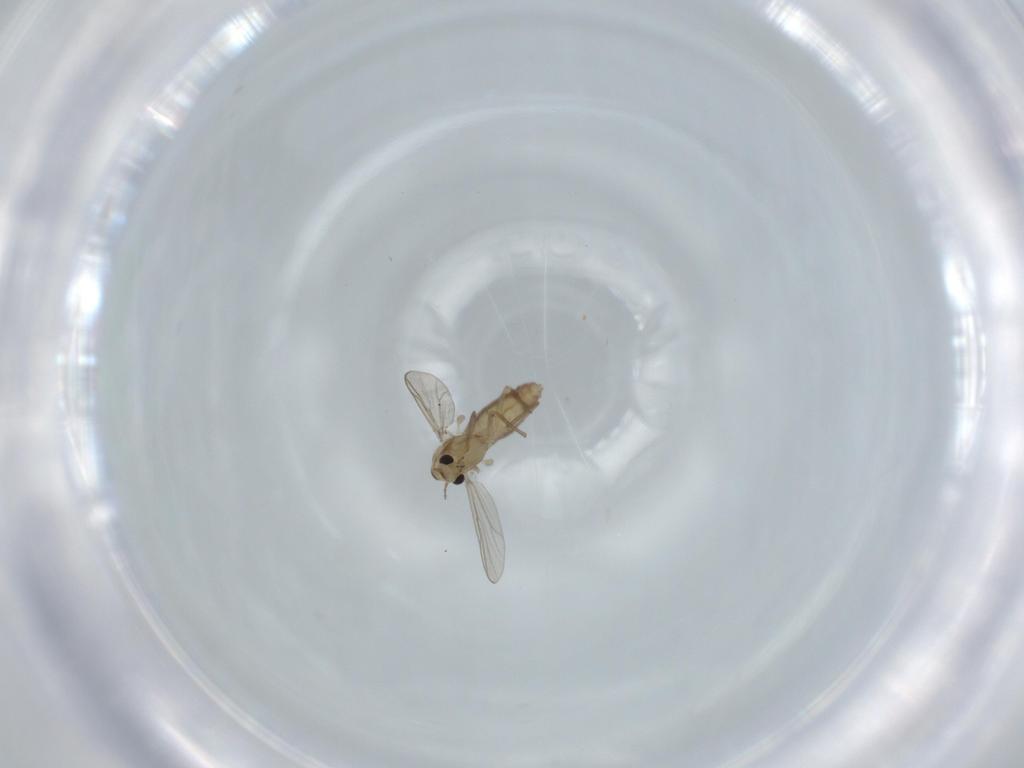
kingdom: Animalia
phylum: Arthropoda
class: Insecta
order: Diptera
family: Chironomidae
